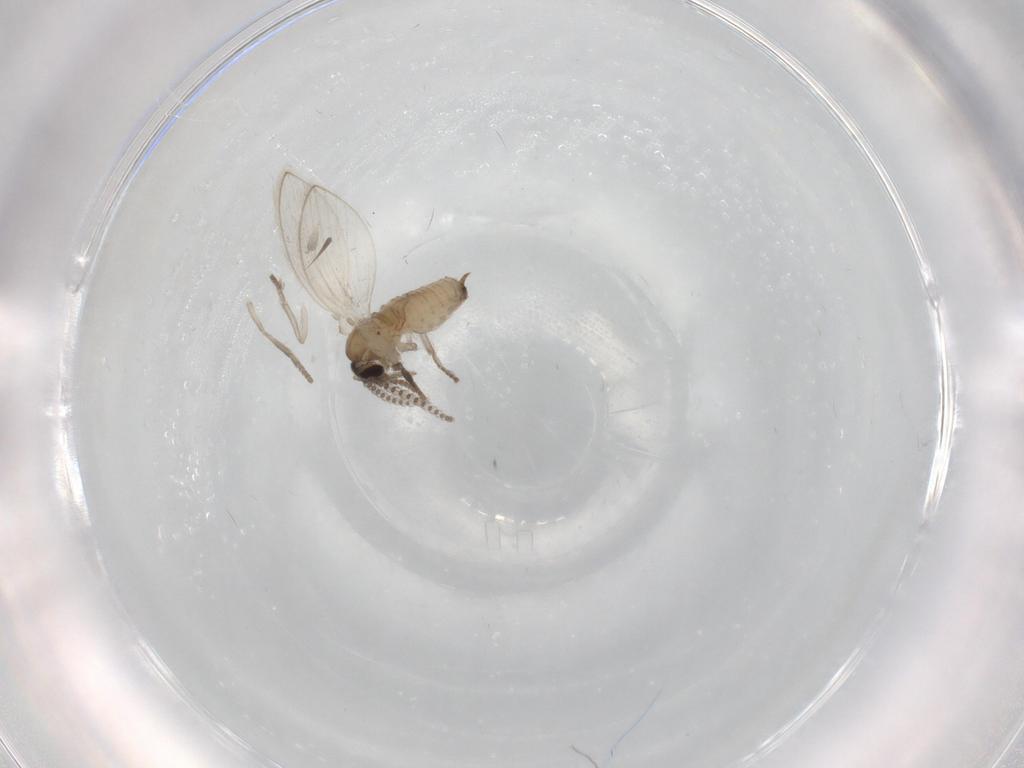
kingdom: Animalia
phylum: Arthropoda
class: Insecta
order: Diptera
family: Psychodidae
